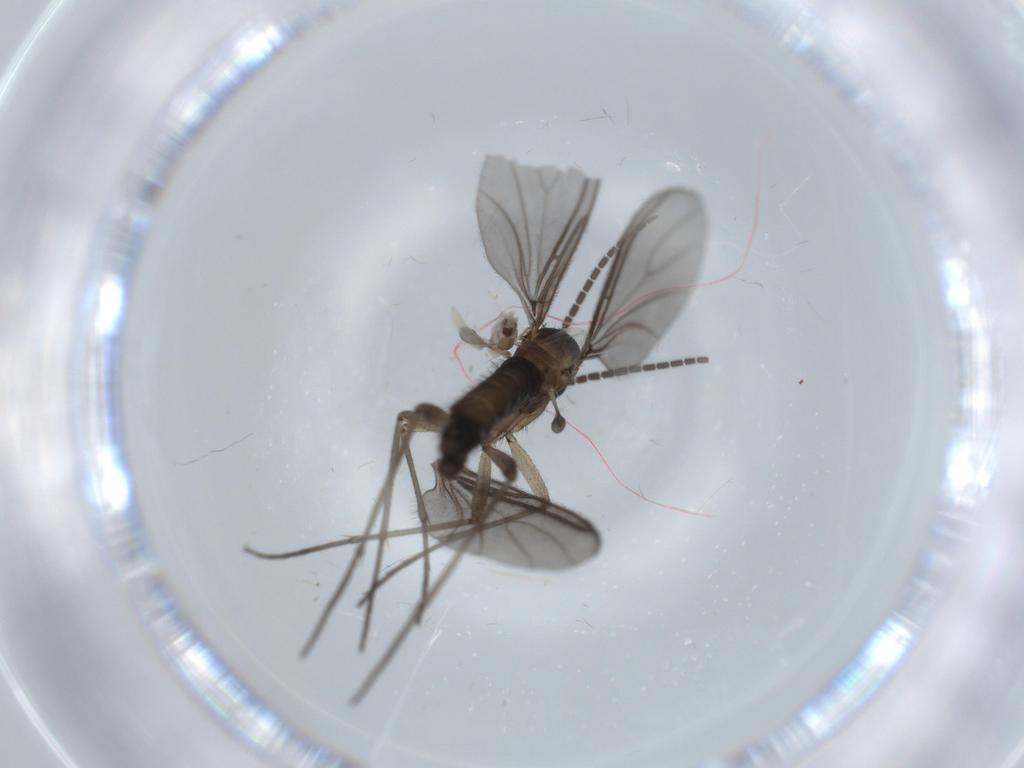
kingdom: Animalia
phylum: Arthropoda
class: Insecta
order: Diptera
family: Sciaridae
